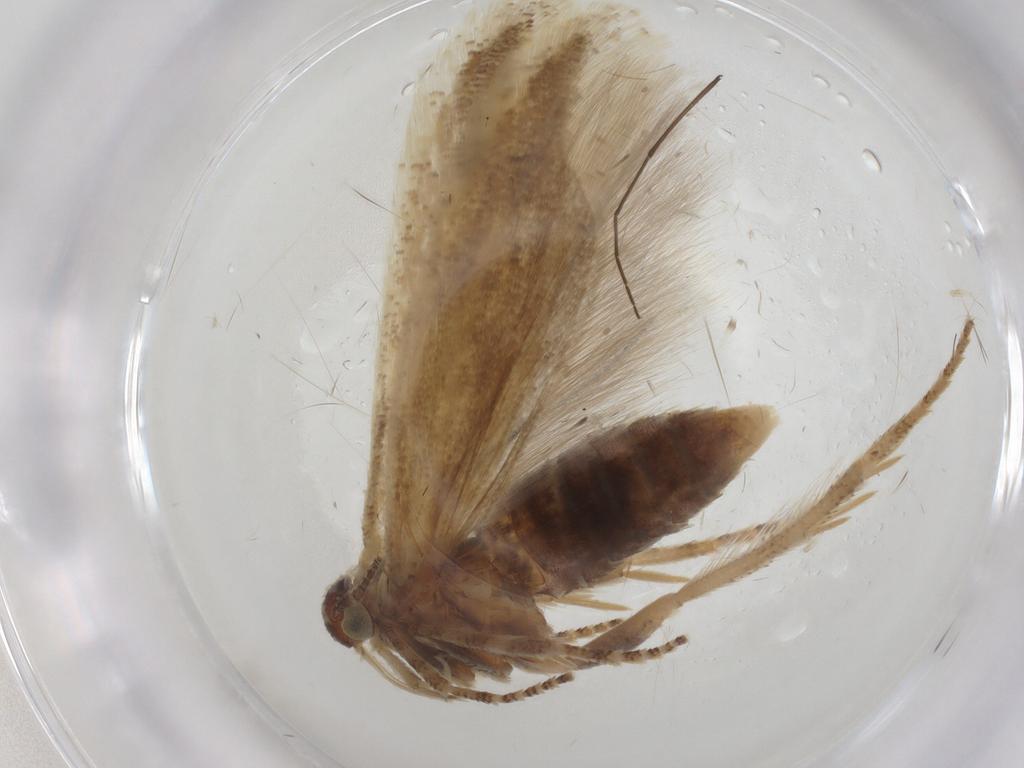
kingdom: Animalia
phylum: Arthropoda
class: Insecta
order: Lepidoptera
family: Gelechiidae
